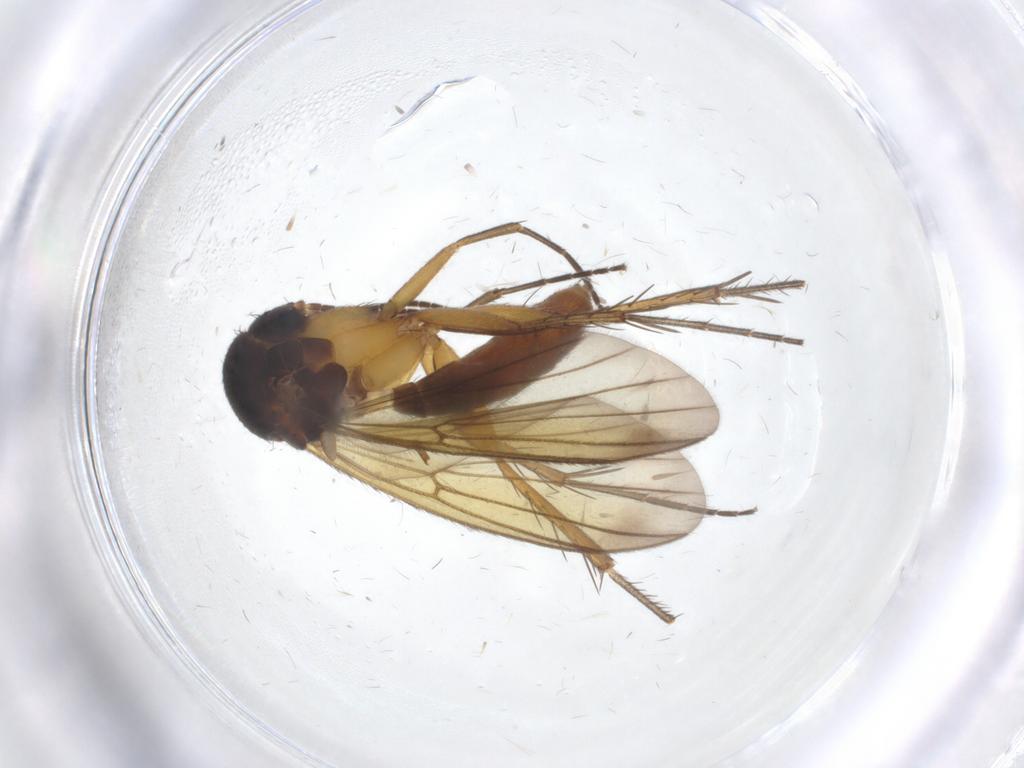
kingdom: Animalia
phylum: Arthropoda
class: Insecta
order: Diptera
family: Mycetophilidae
